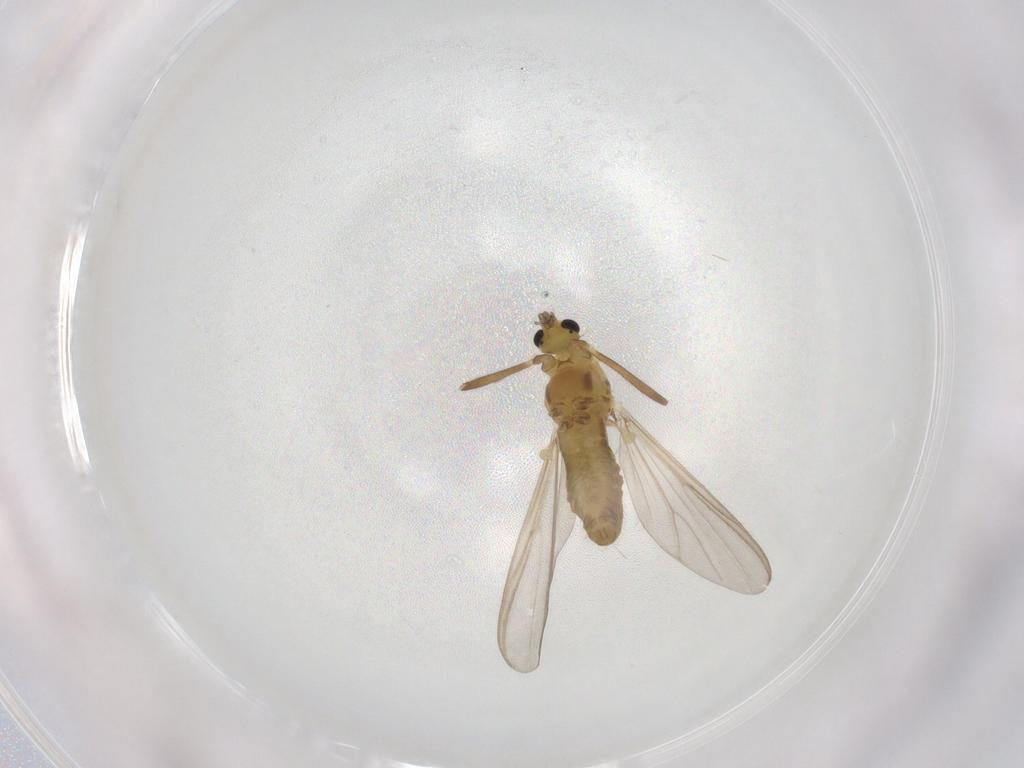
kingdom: Animalia
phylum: Arthropoda
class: Insecta
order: Diptera
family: Chironomidae
